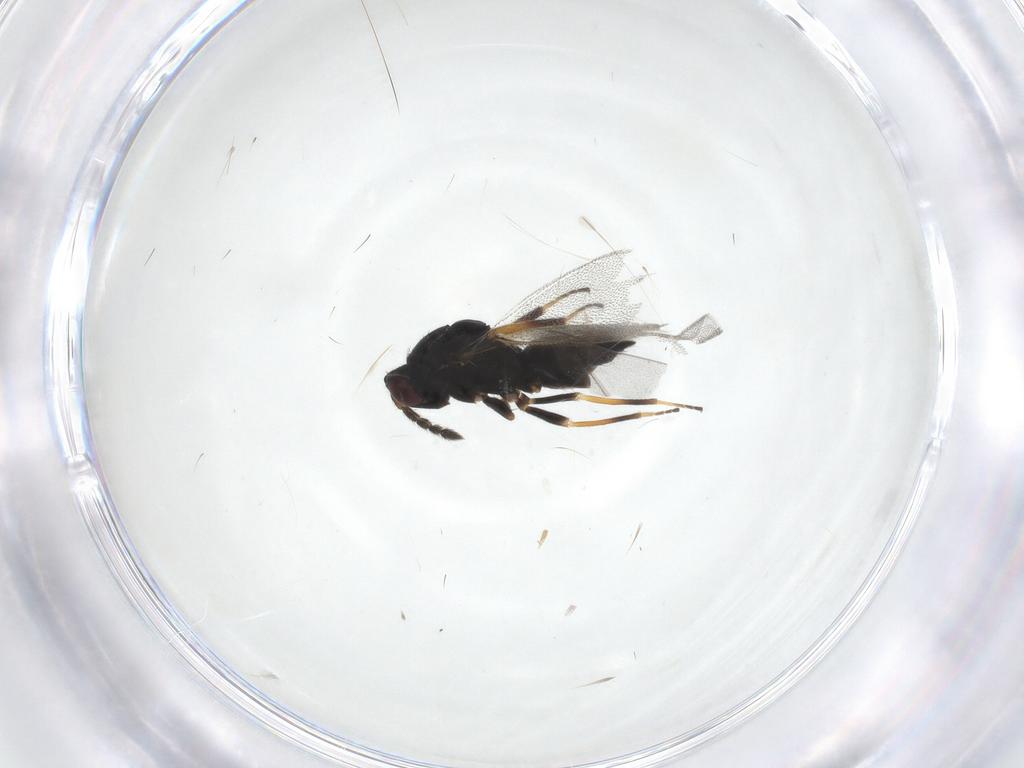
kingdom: Animalia
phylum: Arthropoda
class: Insecta
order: Hymenoptera
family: Eulophidae
